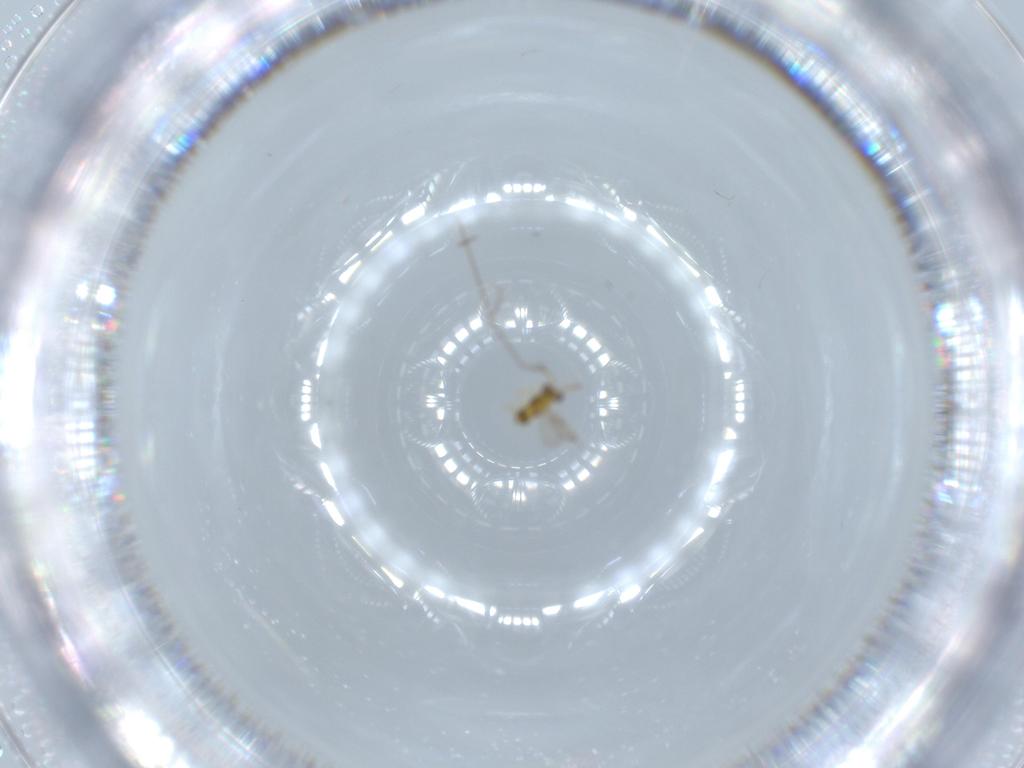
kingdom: Animalia
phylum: Arthropoda
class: Insecta
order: Hymenoptera
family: Aphelinidae
